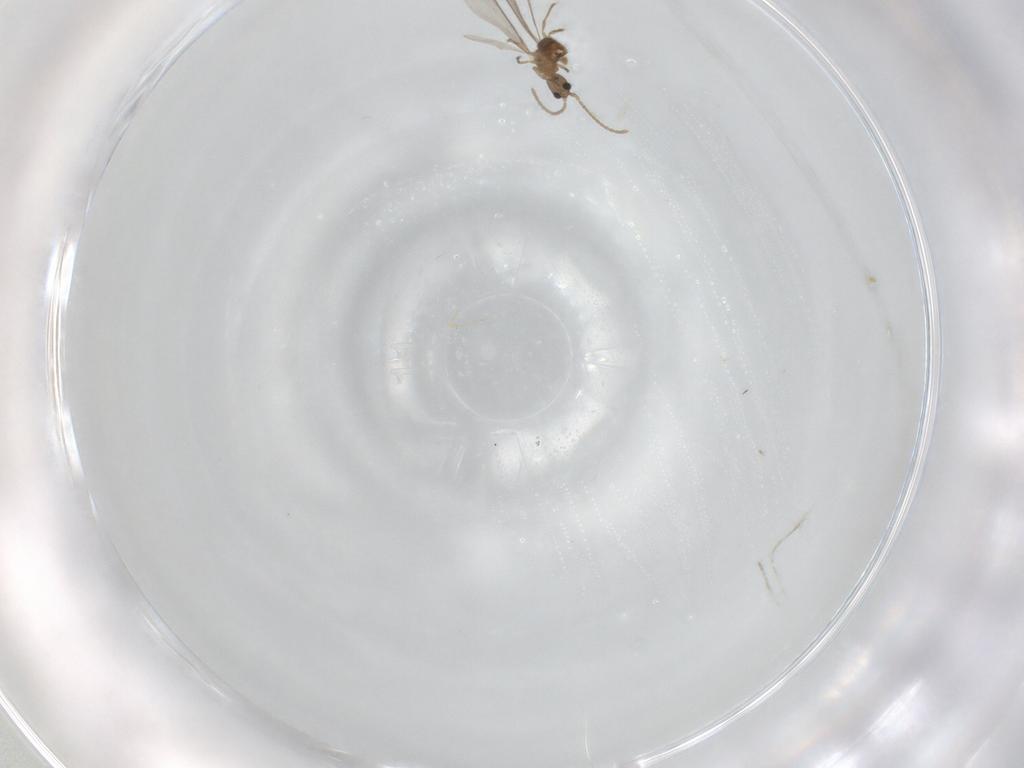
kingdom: Animalia
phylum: Arthropoda
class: Insecta
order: Hymenoptera
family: Formicidae
